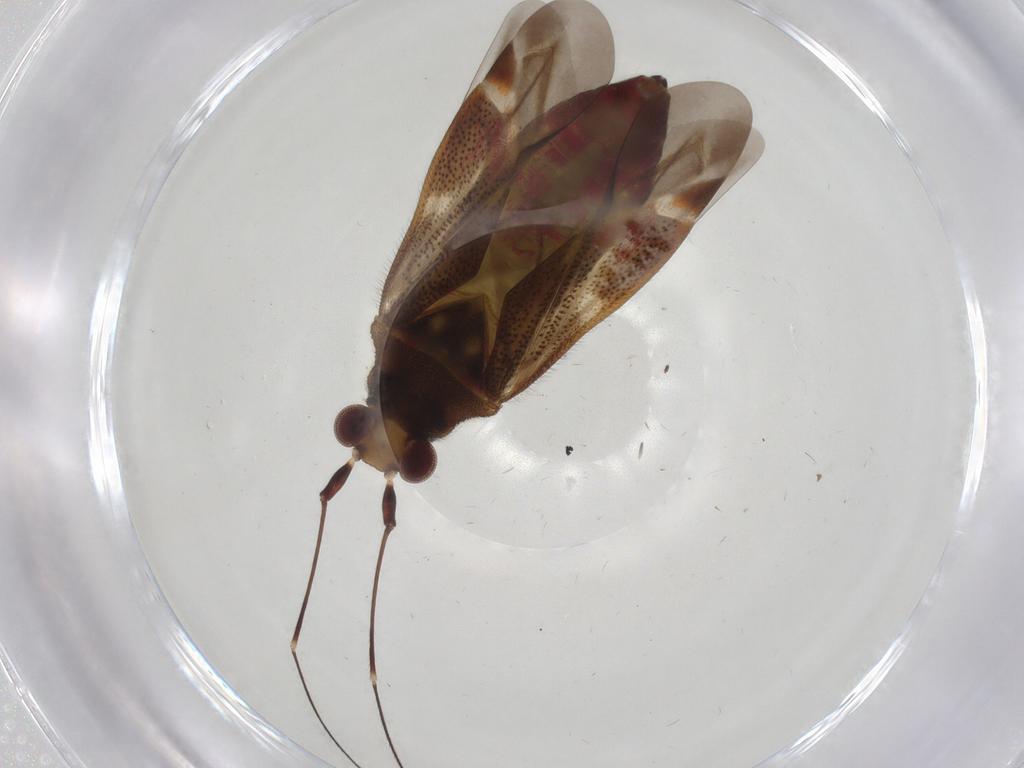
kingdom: Animalia
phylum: Arthropoda
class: Insecta
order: Hemiptera
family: Miridae
